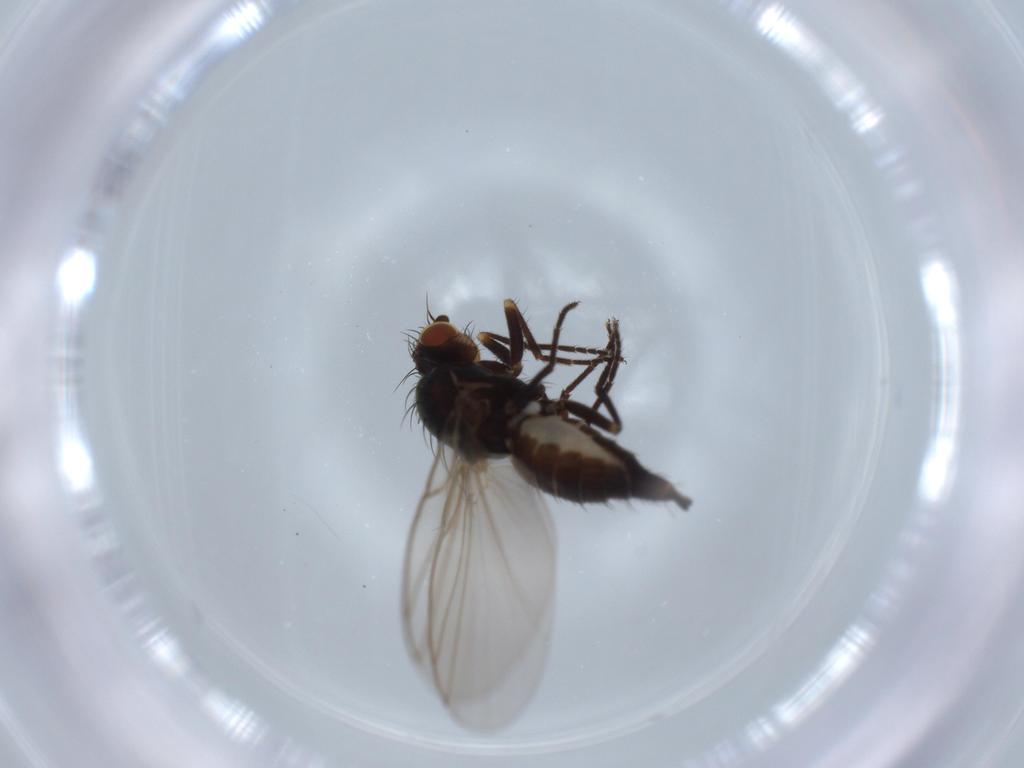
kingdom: Animalia
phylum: Arthropoda
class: Insecta
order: Diptera
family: Agromyzidae
